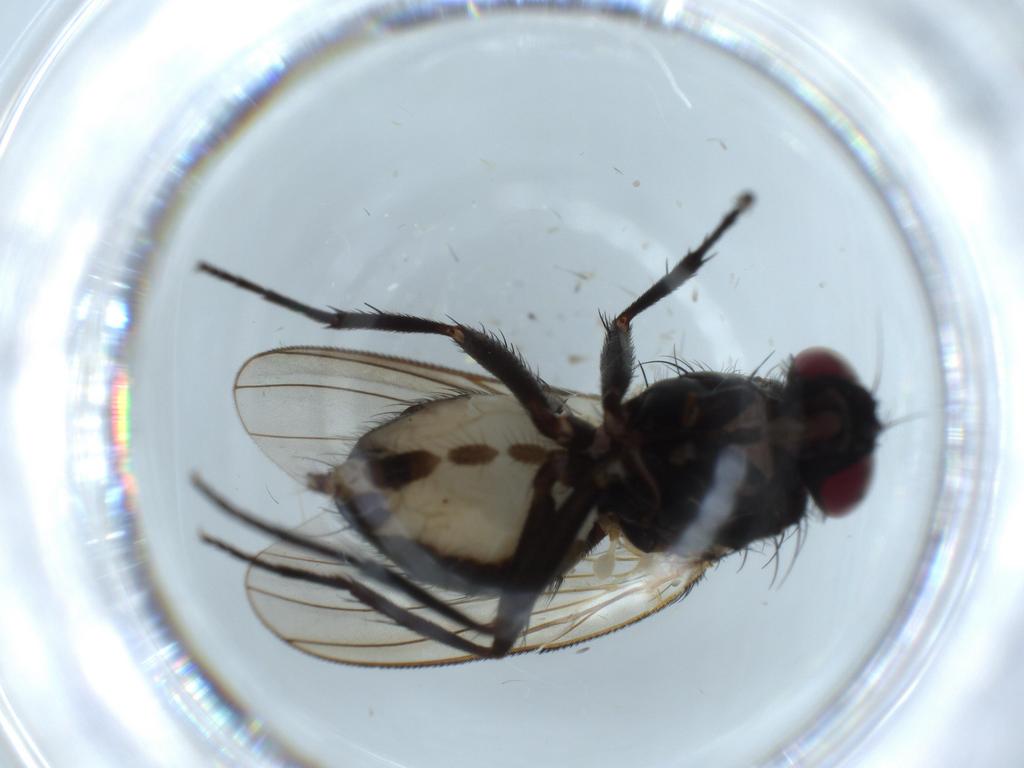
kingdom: Animalia
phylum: Arthropoda
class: Insecta
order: Diptera
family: Fannia
